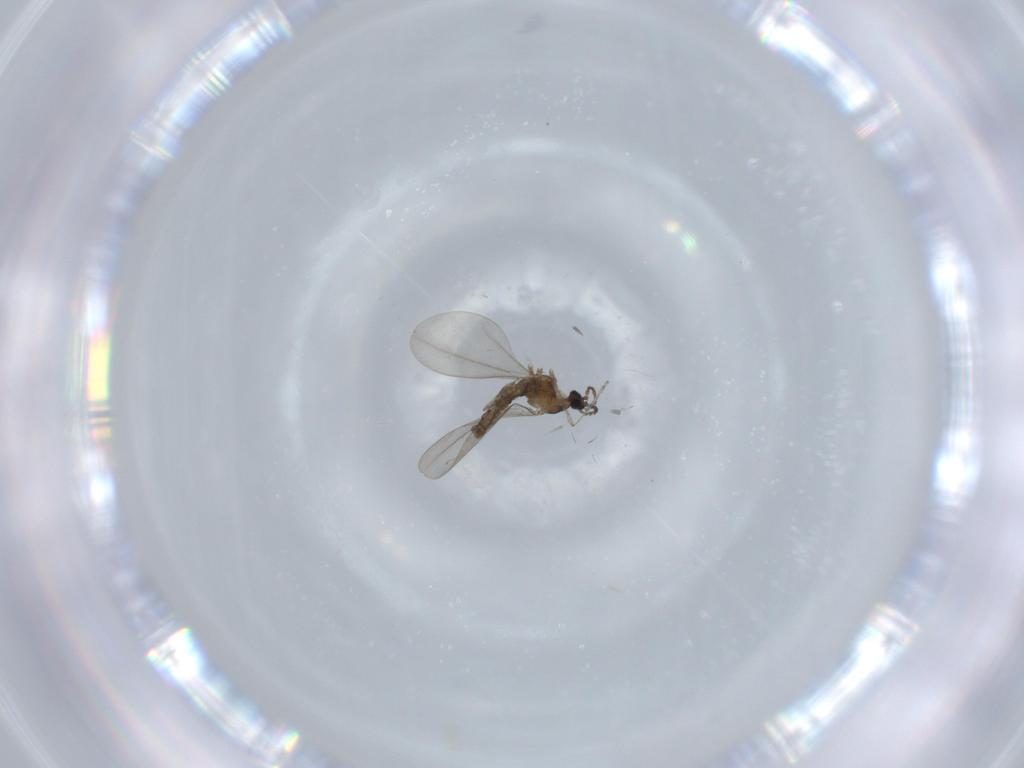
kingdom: Animalia
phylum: Arthropoda
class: Insecta
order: Diptera
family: Cecidomyiidae
